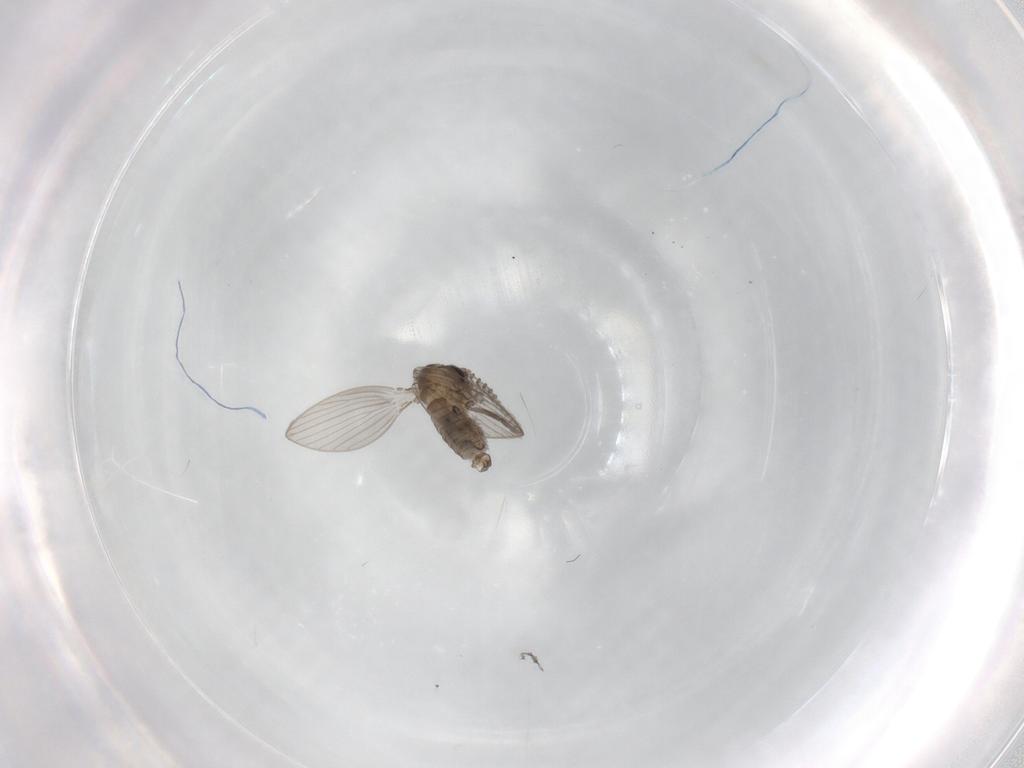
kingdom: Animalia
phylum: Arthropoda
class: Insecta
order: Diptera
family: Psychodidae
